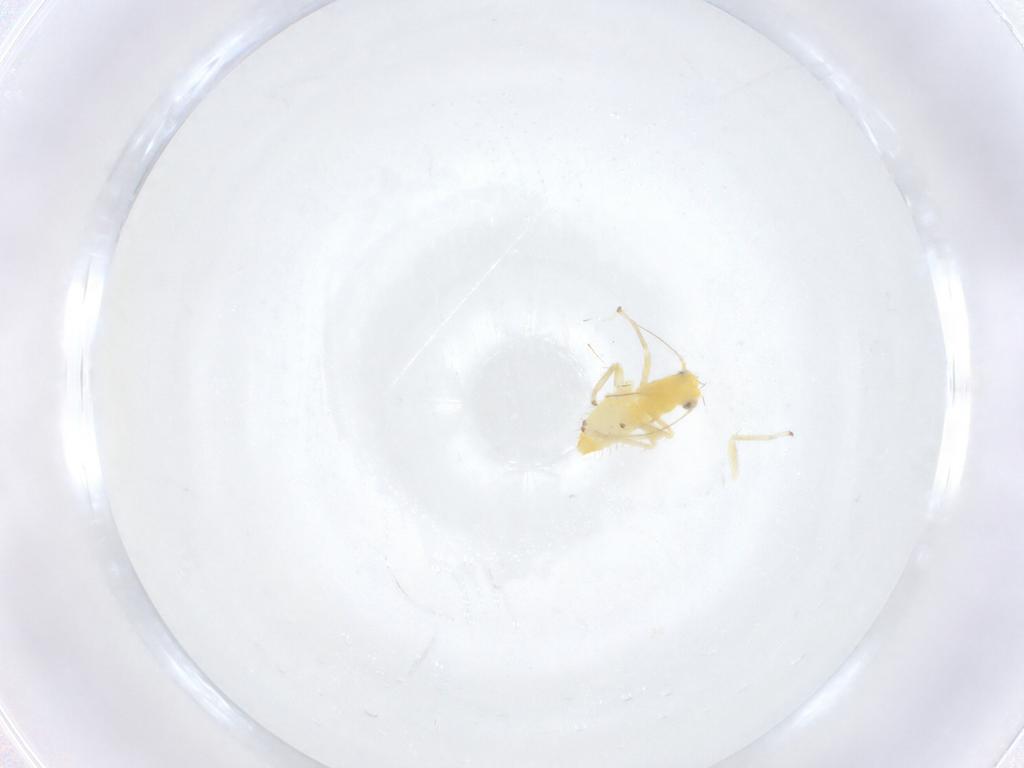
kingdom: Animalia
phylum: Arthropoda
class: Insecta
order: Hemiptera
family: Cicadellidae
